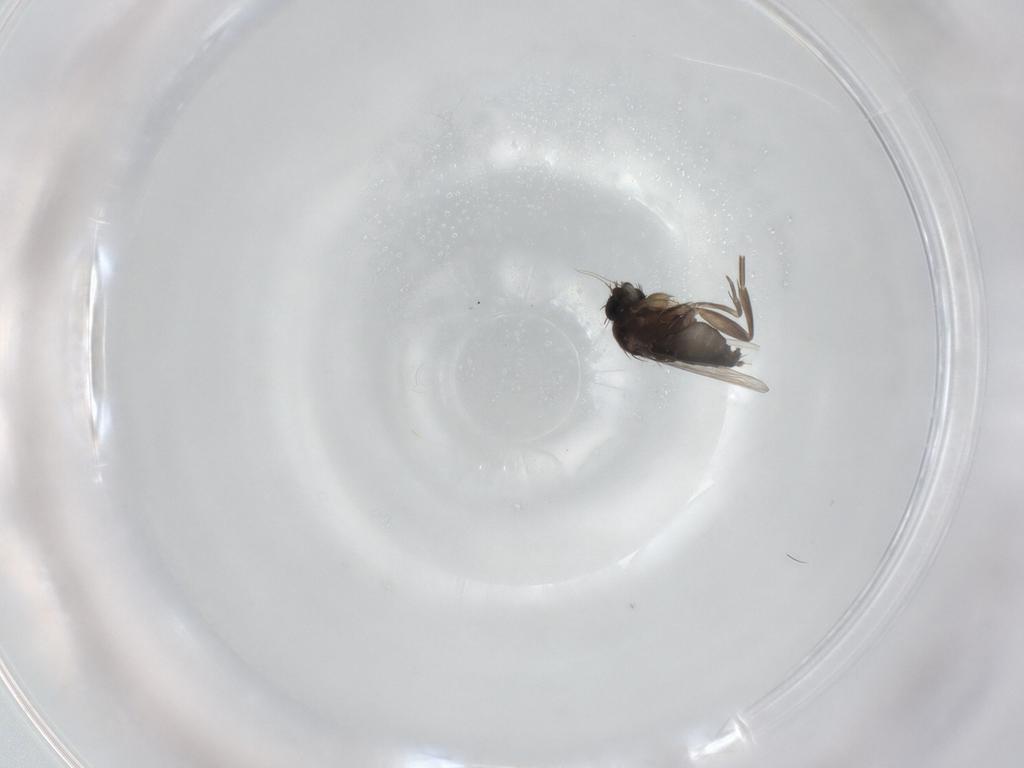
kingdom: Animalia
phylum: Arthropoda
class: Insecta
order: Diptera
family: Phoridae
